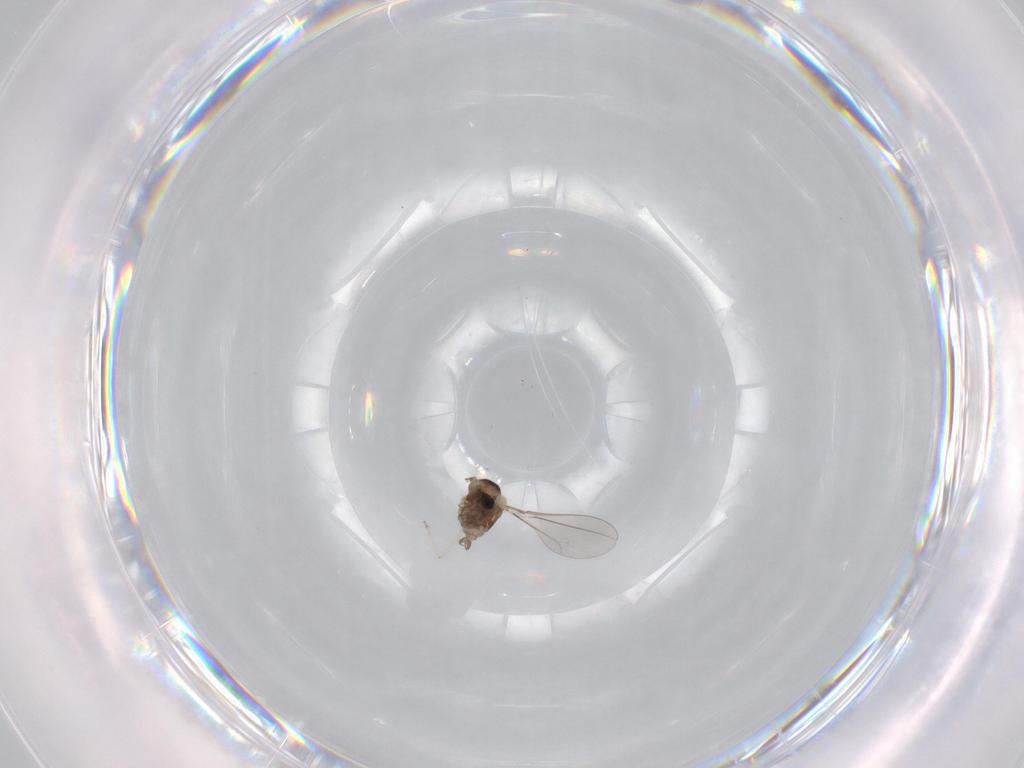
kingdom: Animalia
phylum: Arthropoda
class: Insecta
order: Diptera
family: Cecidomyiidae
